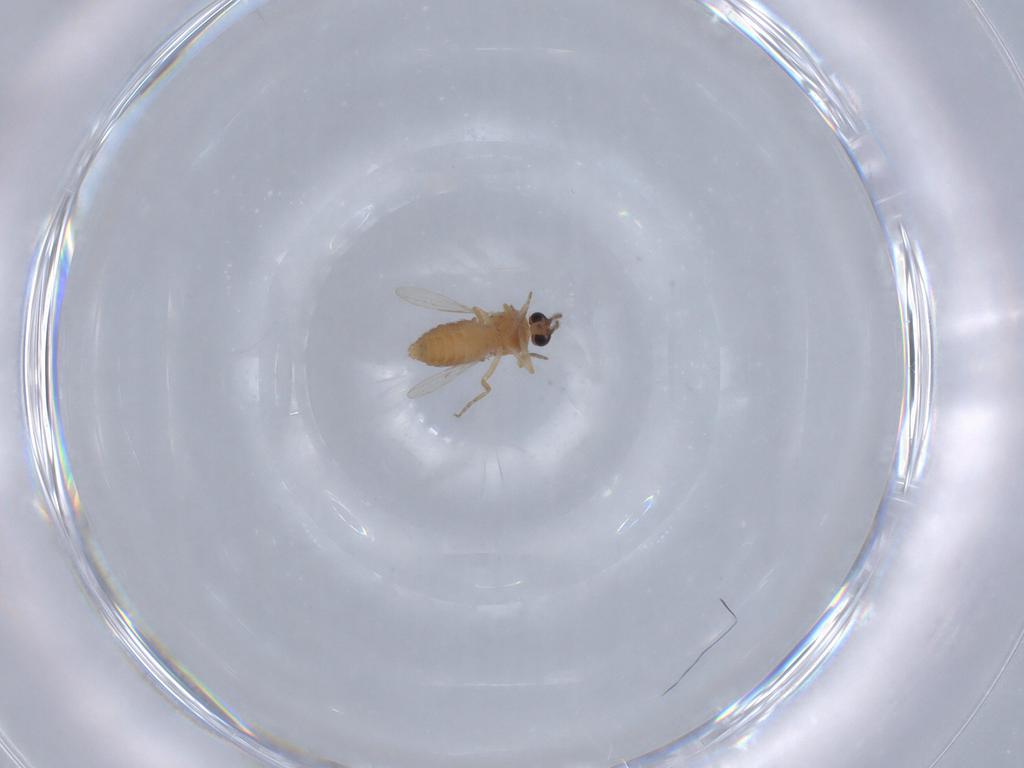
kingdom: Animalia
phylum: Arthropoda
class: Insecta
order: Diptera
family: Ceratopogonidae
